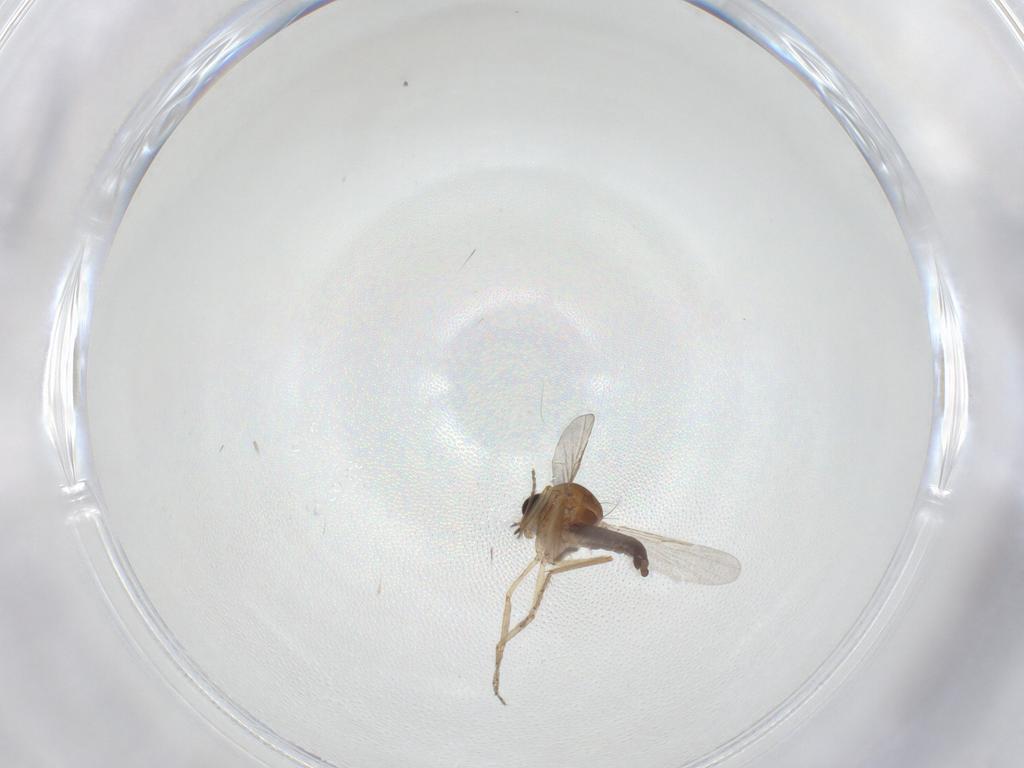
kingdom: Animalia
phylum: Arthropoda
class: Insecta
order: Diptera
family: Ceratopogonidae
